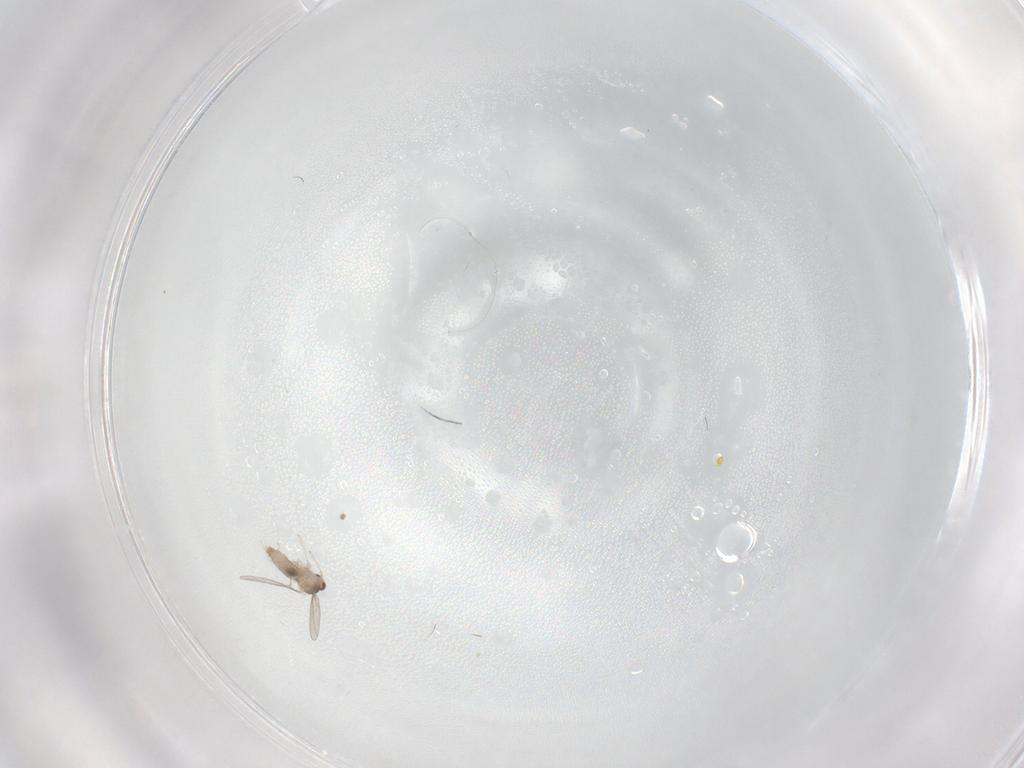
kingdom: Animalia
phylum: Arthropoda
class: Insecta
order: Diptera
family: Cecidomyiidae
